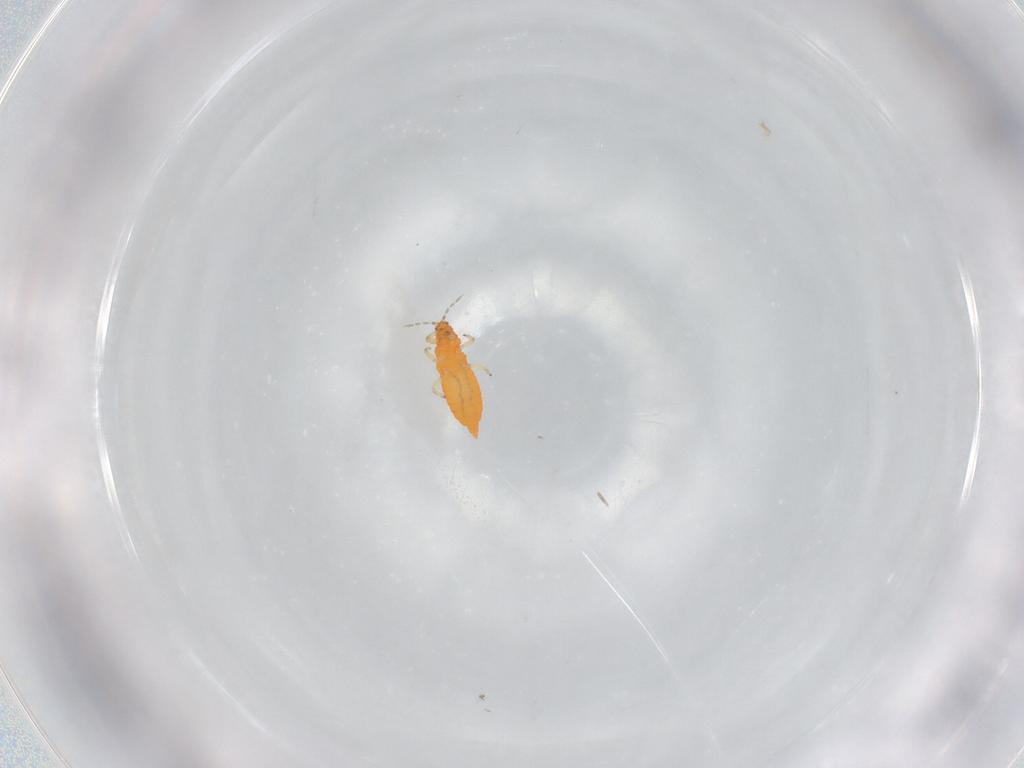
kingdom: Animalia
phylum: Arthropoda
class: Insecta
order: Thysanoptera
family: Aeolothripidae
